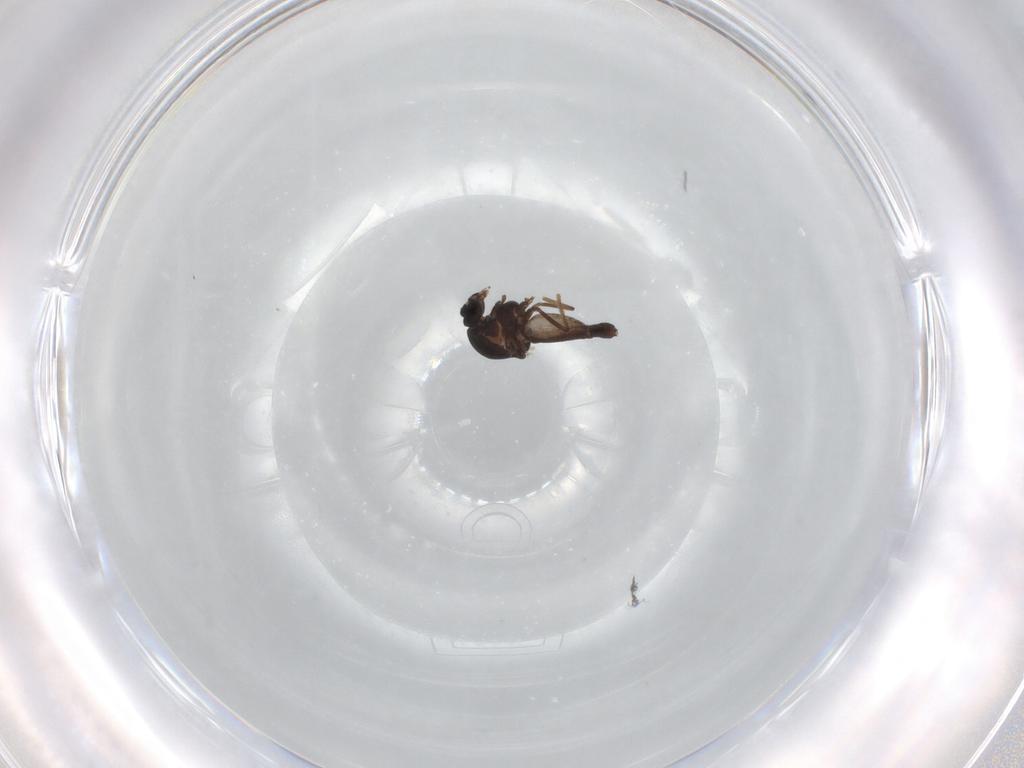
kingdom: Animalia
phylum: Arthropoda
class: Insecta
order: Diptera
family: Ceratopogonidae
